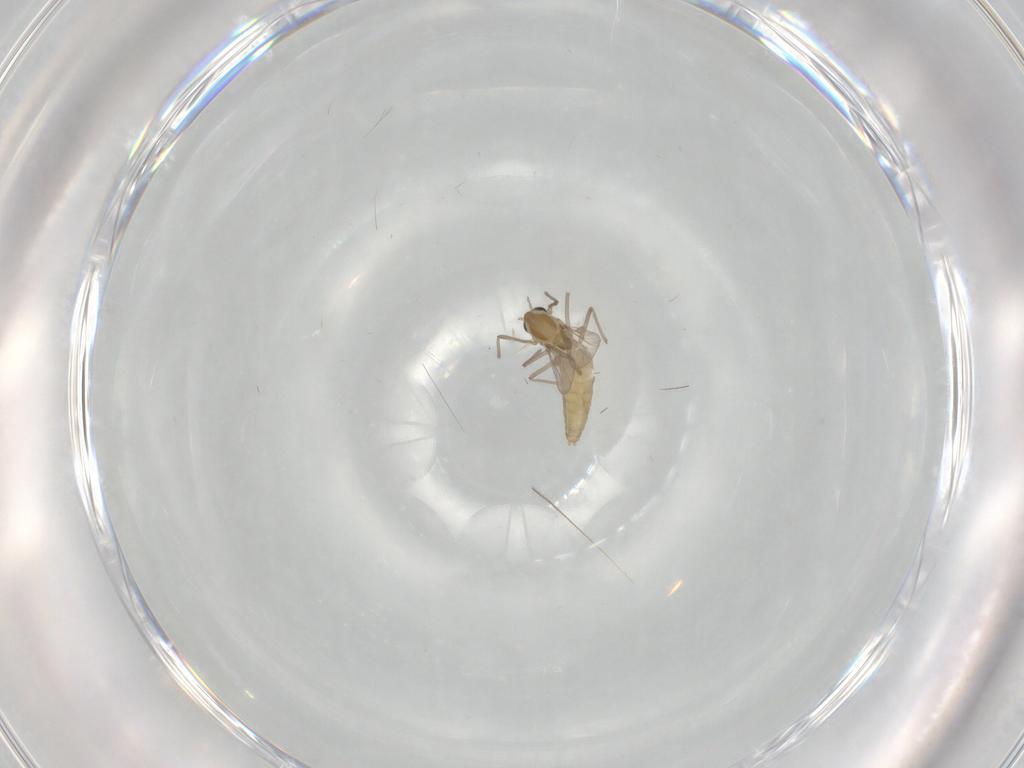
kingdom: Animalia
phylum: Arthropoda
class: Insecta
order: Diptera
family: Chironomidae
